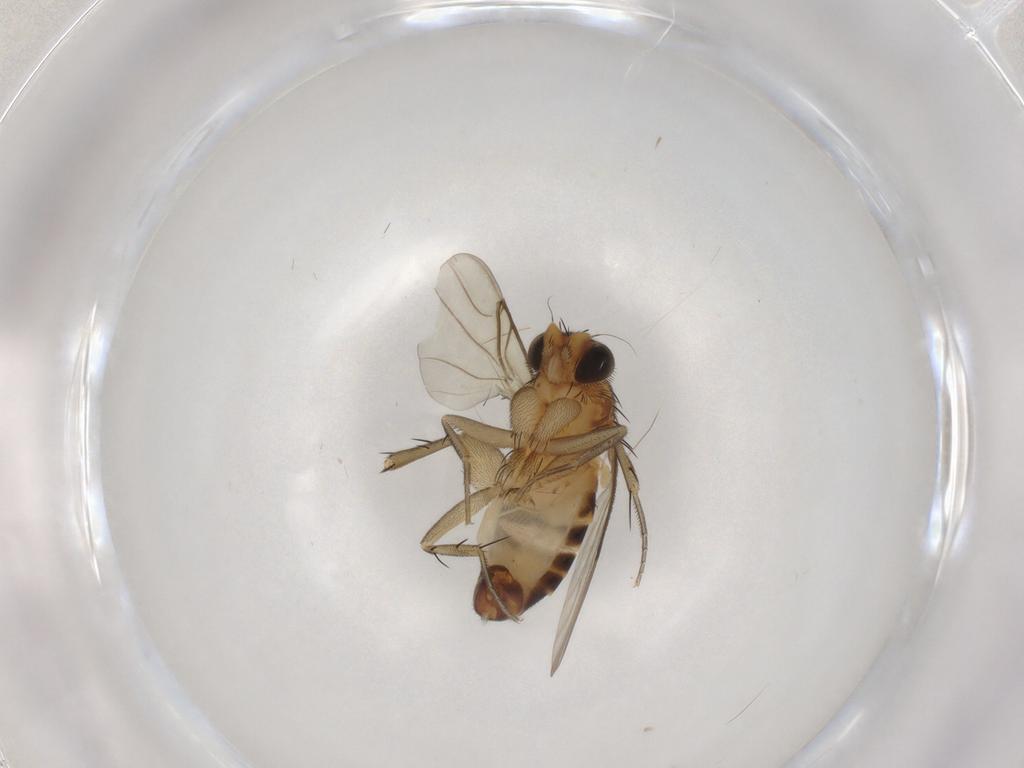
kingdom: Animalia
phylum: Arthropoda
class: Insecta
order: Diptera
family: Phoridae
